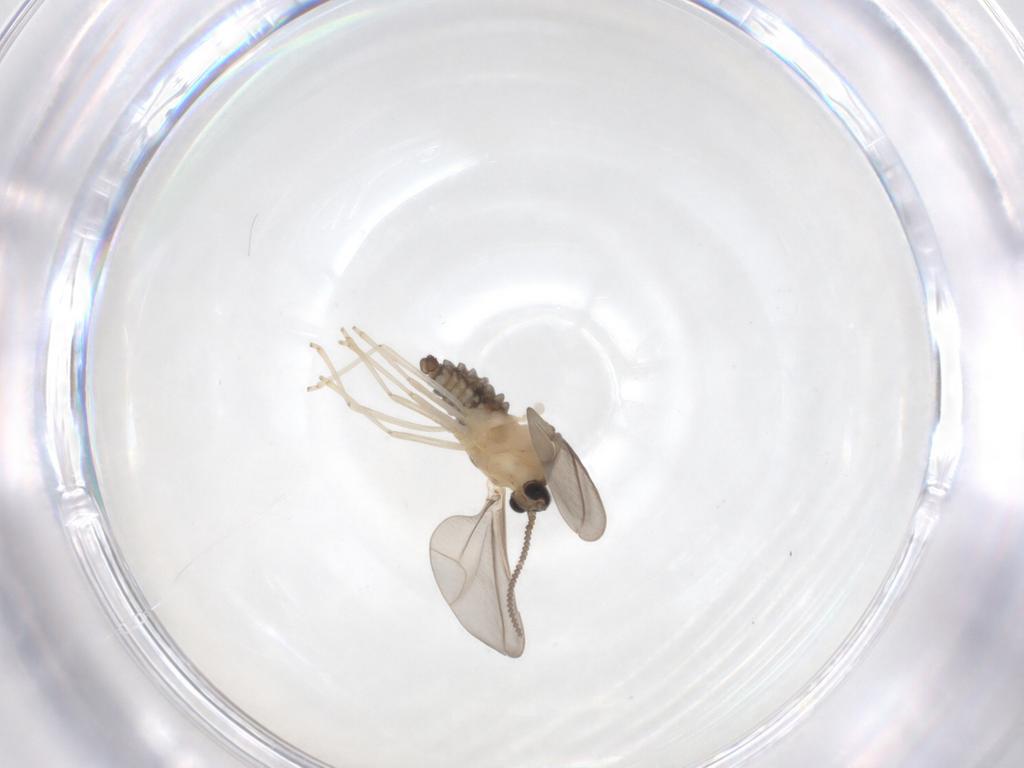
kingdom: Animalia
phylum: Arthropoda
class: Insecta
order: Diptera
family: Cecidomyiidae
